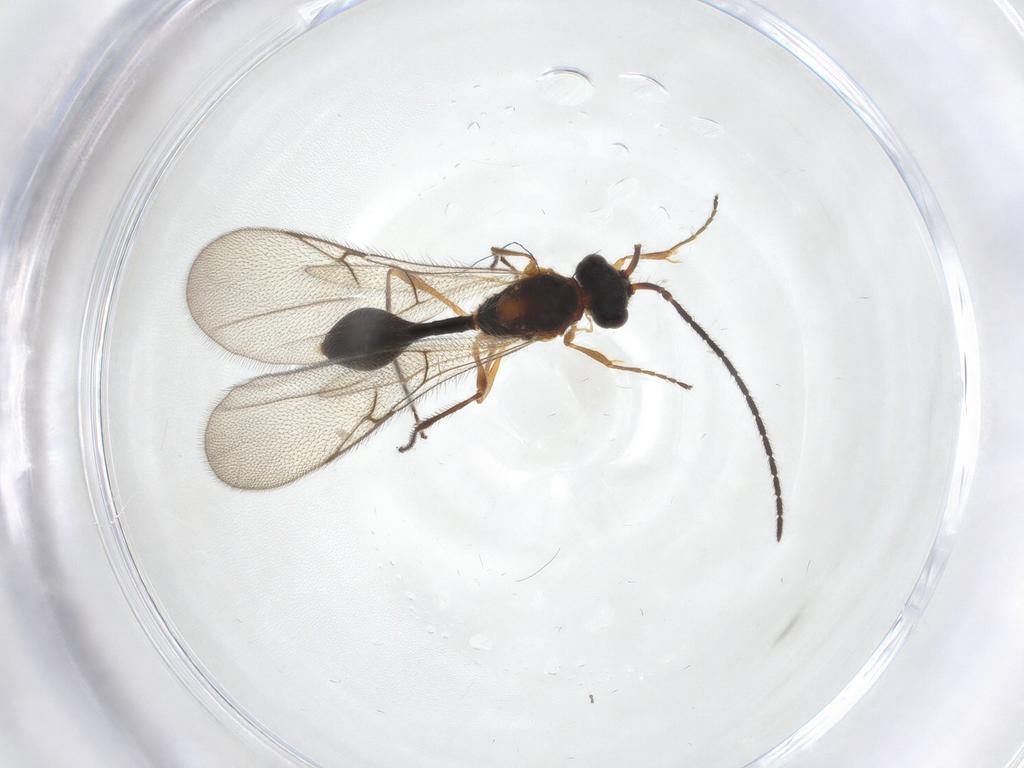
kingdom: Animalia
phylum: Arthropoda
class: Insecta
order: Hymenoptera
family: Diapriidae
